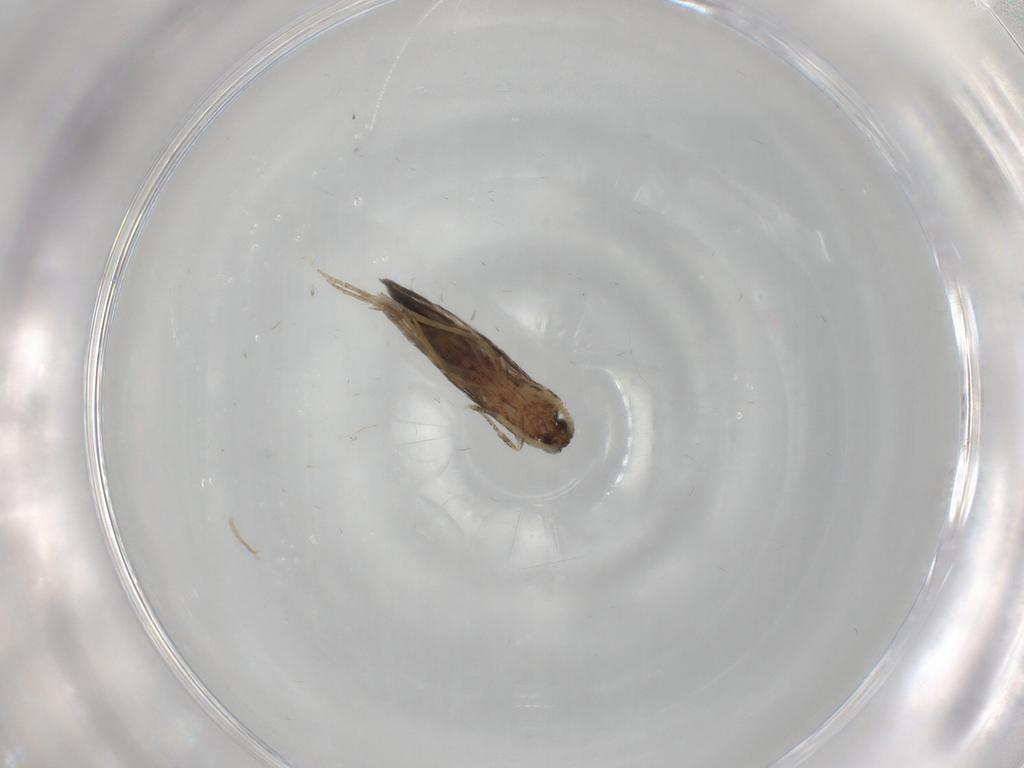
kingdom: Animalia
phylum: Arthropoda
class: Insecta
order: Trichoptera
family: Hydroptilidae
